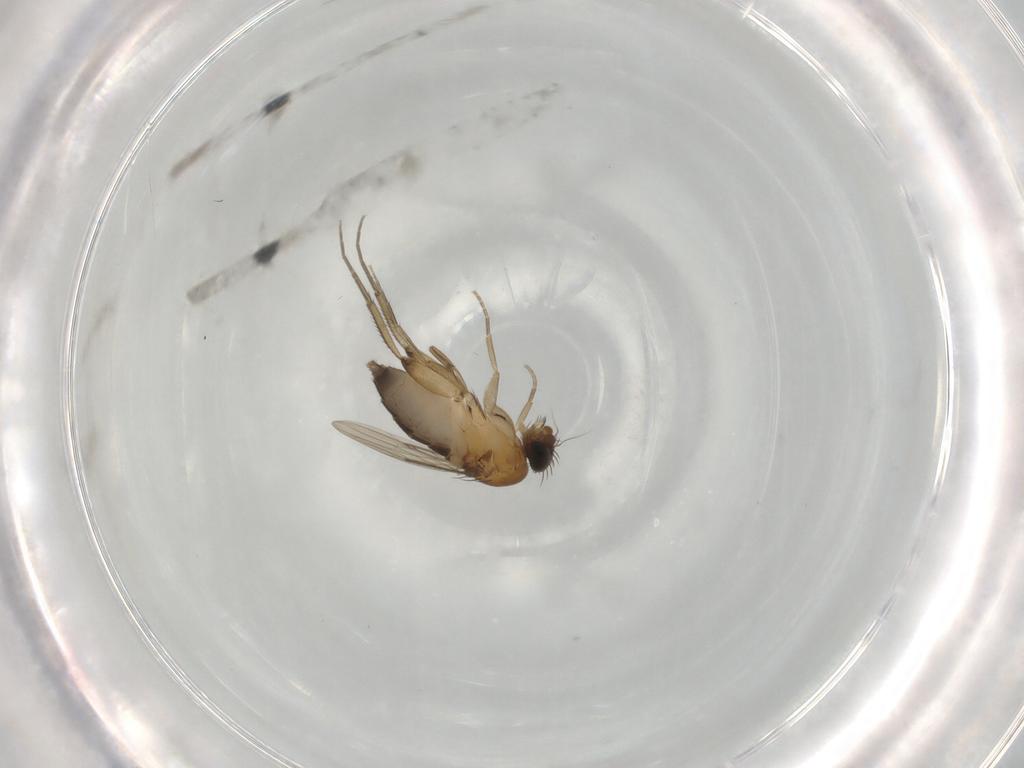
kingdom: Animalia
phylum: Arthropoda
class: Insecta
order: Diptera
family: Phoridae
